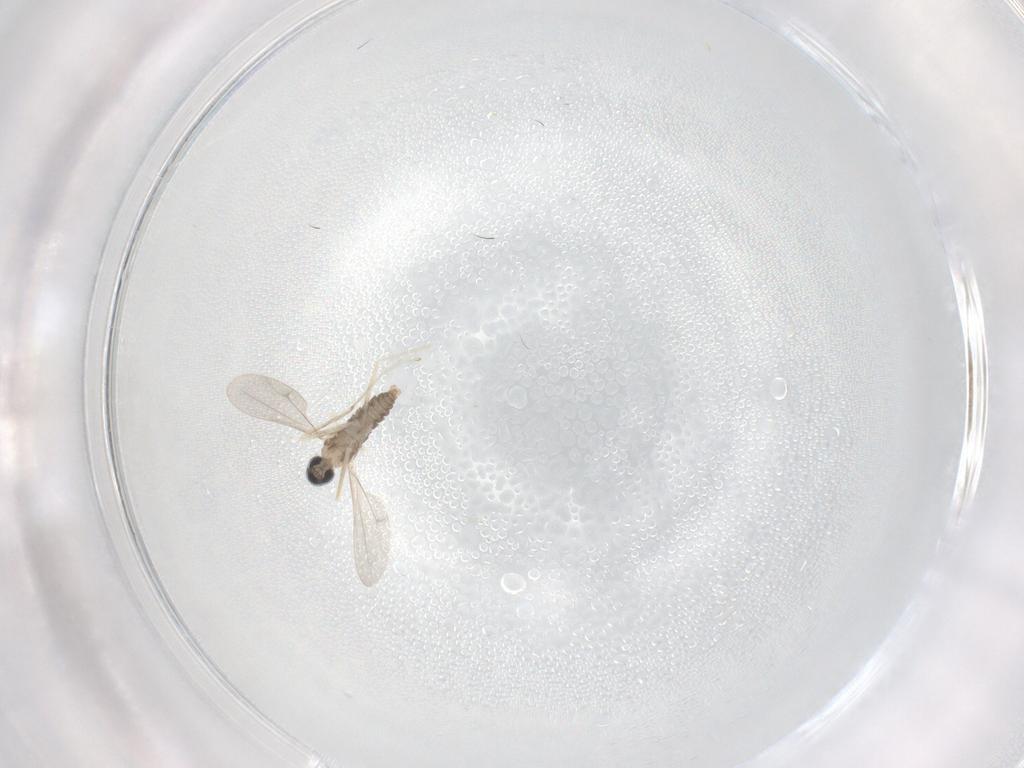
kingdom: Animalia
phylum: Arthropoda
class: Insecta
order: Diptera
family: Cecidomyiidae
